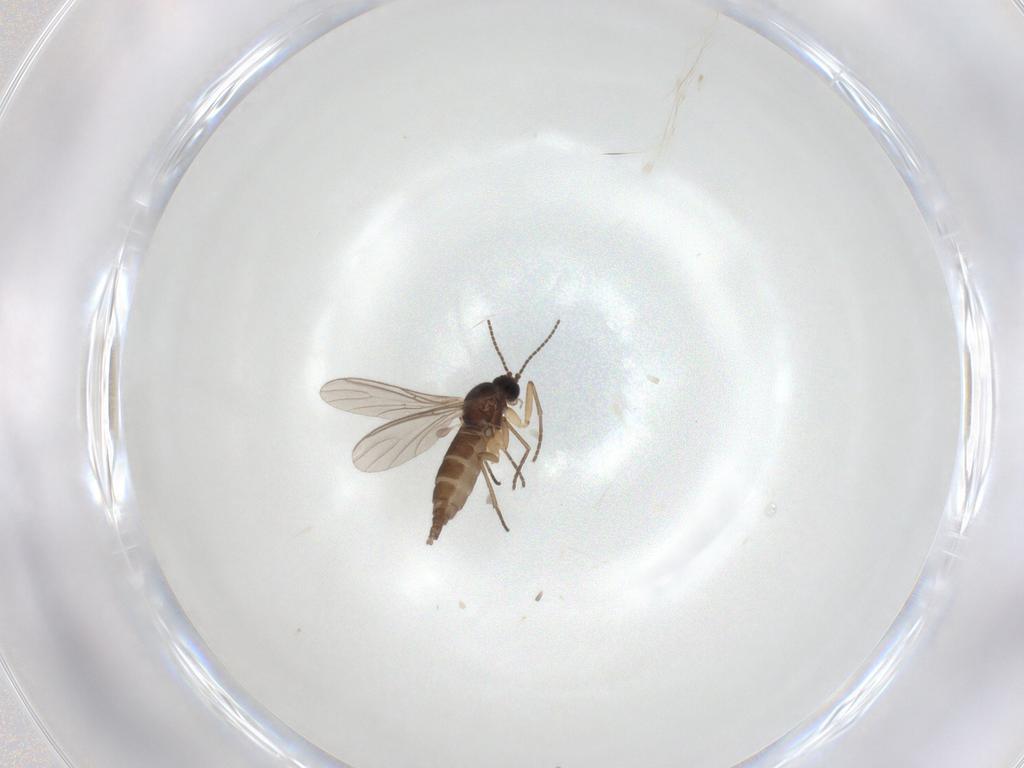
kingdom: Animalia
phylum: Arthropoda
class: Insecta
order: Diptera
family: Sciaridae
